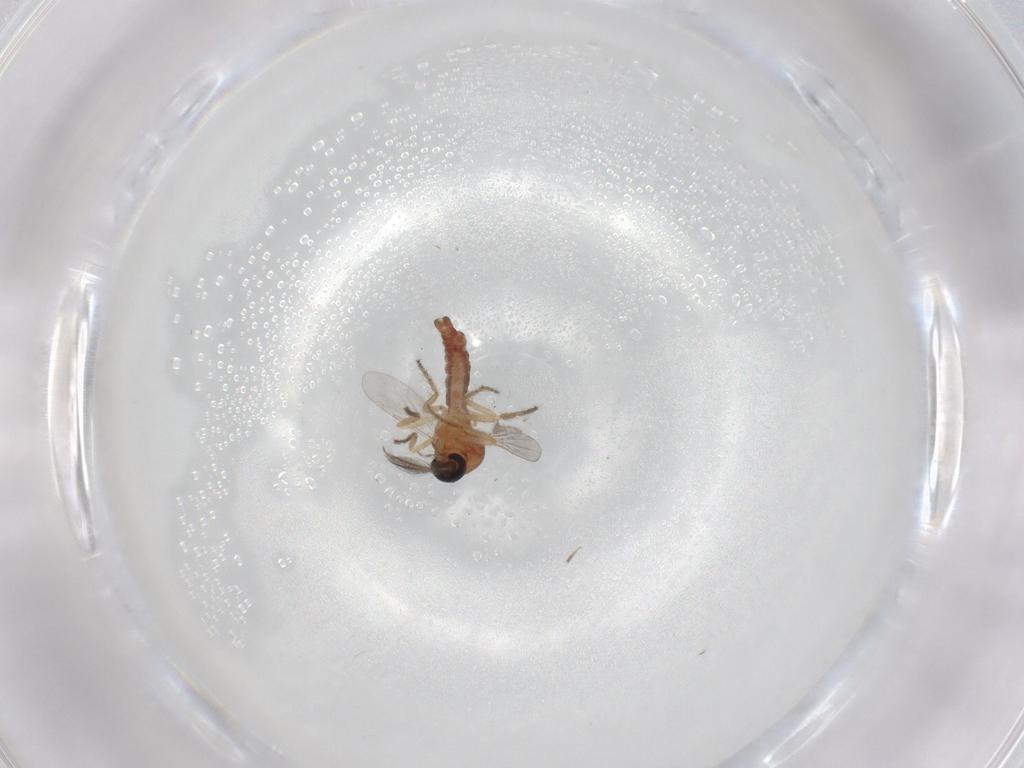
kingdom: Animalia
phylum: Arthropoda
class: Insecta
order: Diptera
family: Ceratopogonidae
